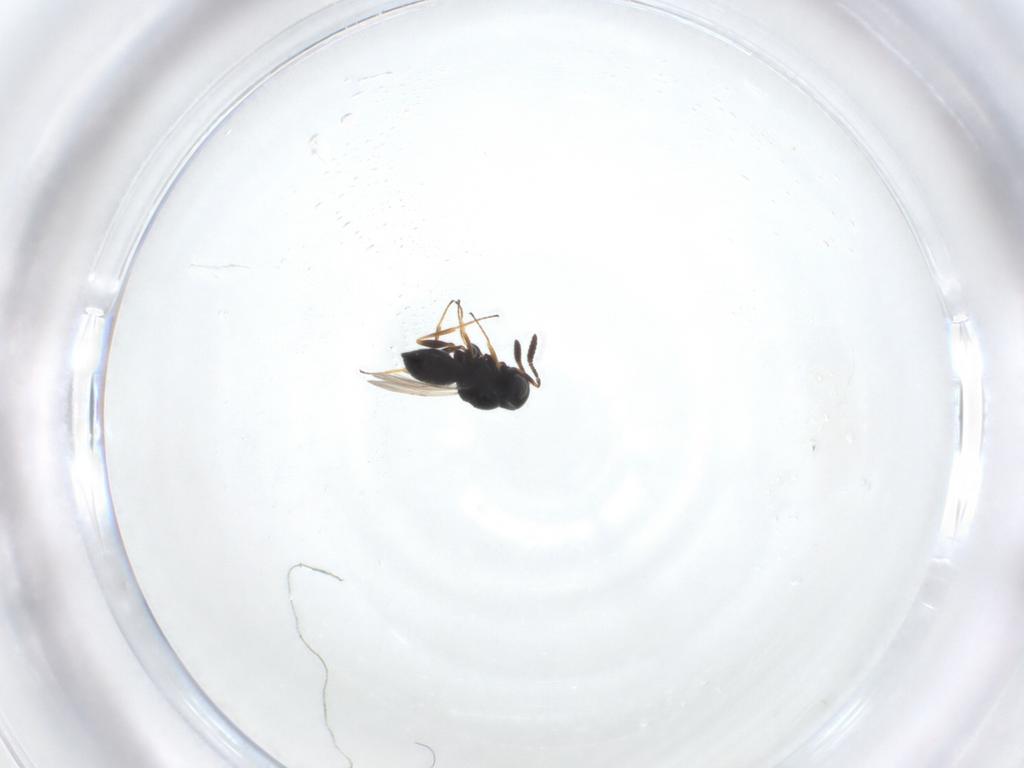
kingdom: Animalia
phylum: Arthropoda
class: Insecta
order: Hymenoptera
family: Scelionidae
